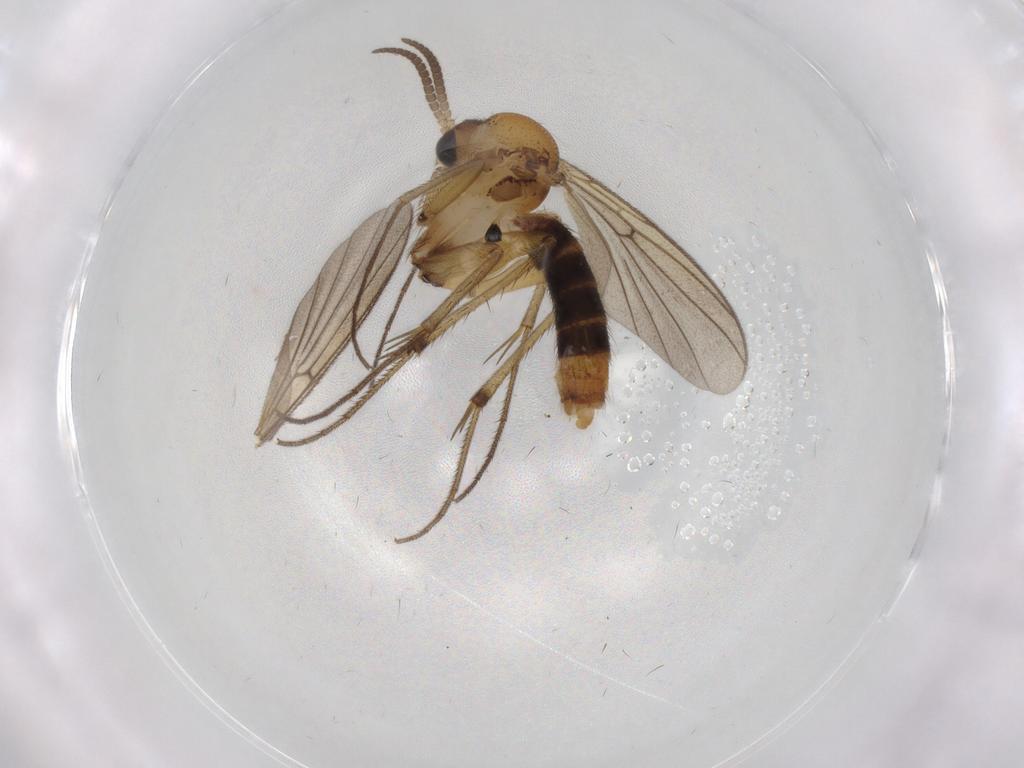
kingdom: Animalia
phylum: Arthropoda
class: Insecta
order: Diptera
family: Mycetophilidae
